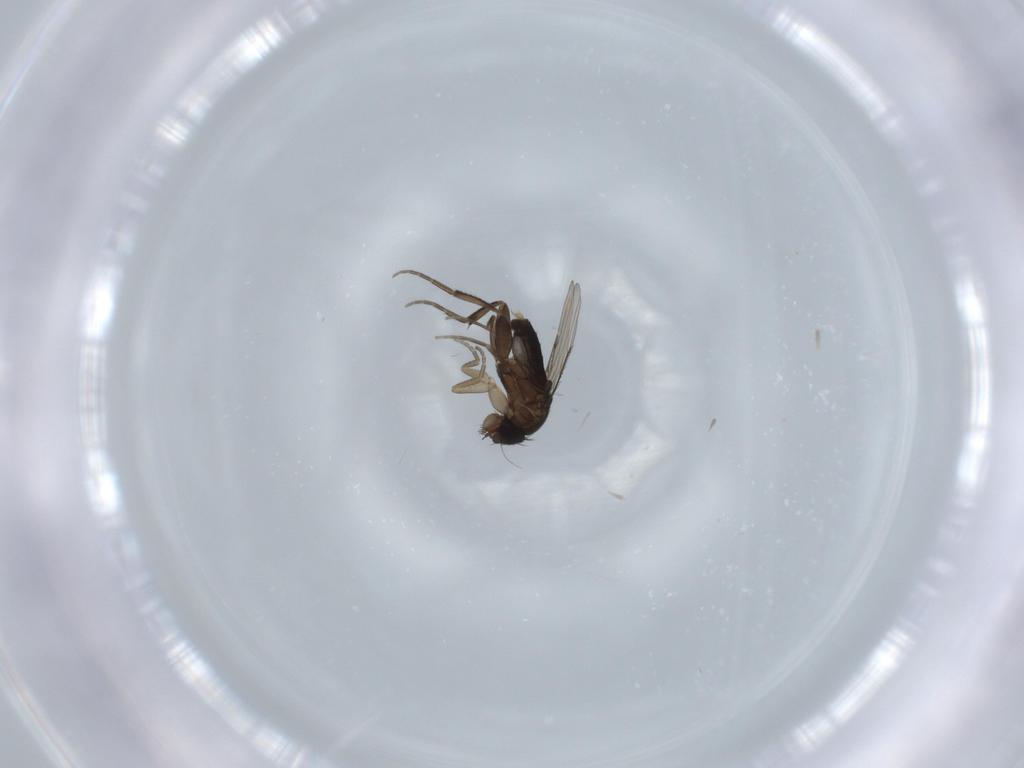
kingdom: Animalia
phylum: Arthropoda
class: Insecta
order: Diptera
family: Phoridae
